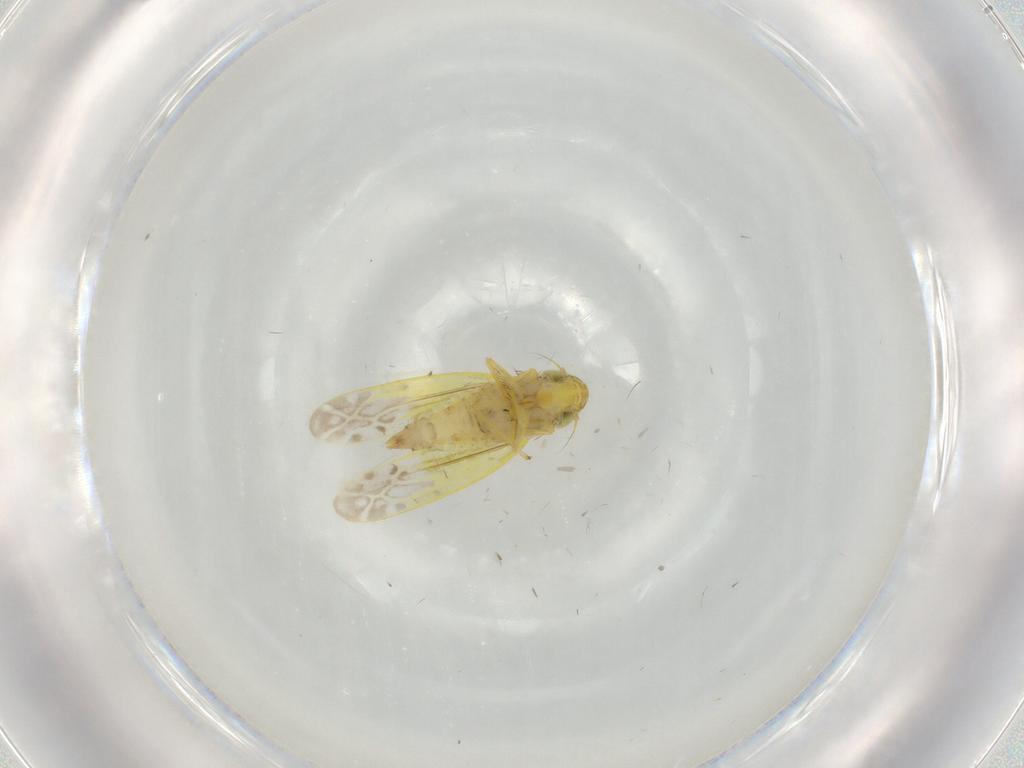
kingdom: Animalia
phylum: Arthropoda
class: Insecta
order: Hemiptera
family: Cicadellidae
